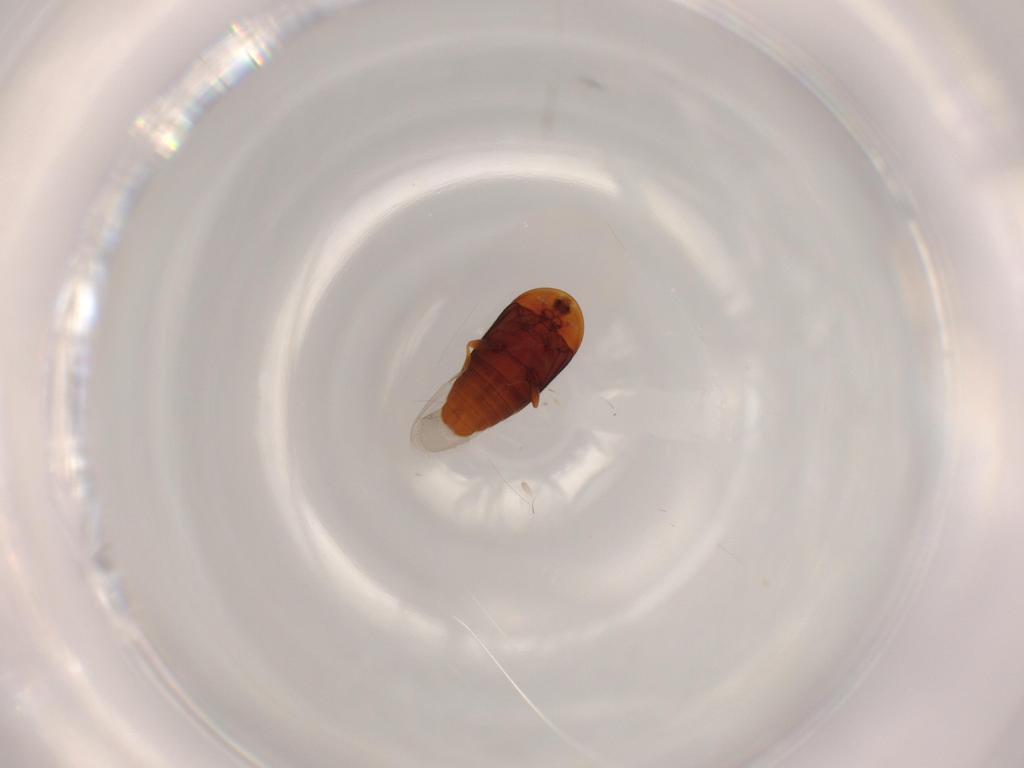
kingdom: Animalia
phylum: Arthropoda
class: Insecta
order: Coleoptera
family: Corylophidae
